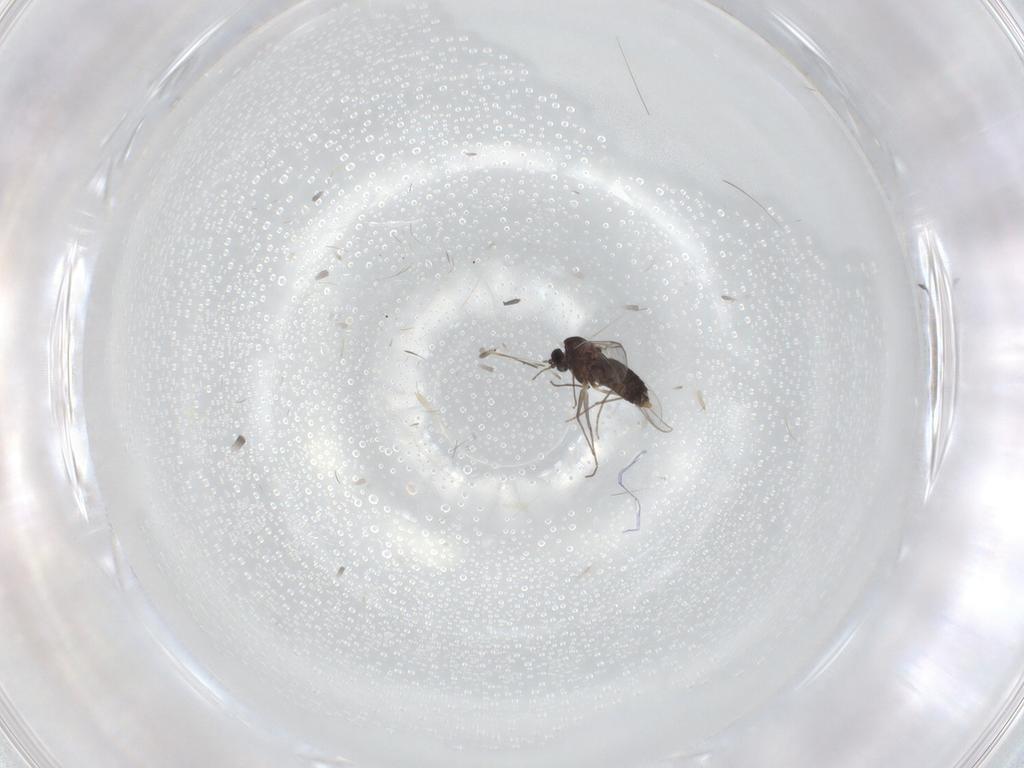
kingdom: Animalia
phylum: Arthropoda
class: Insecta
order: Diptera
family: Chironomidae
